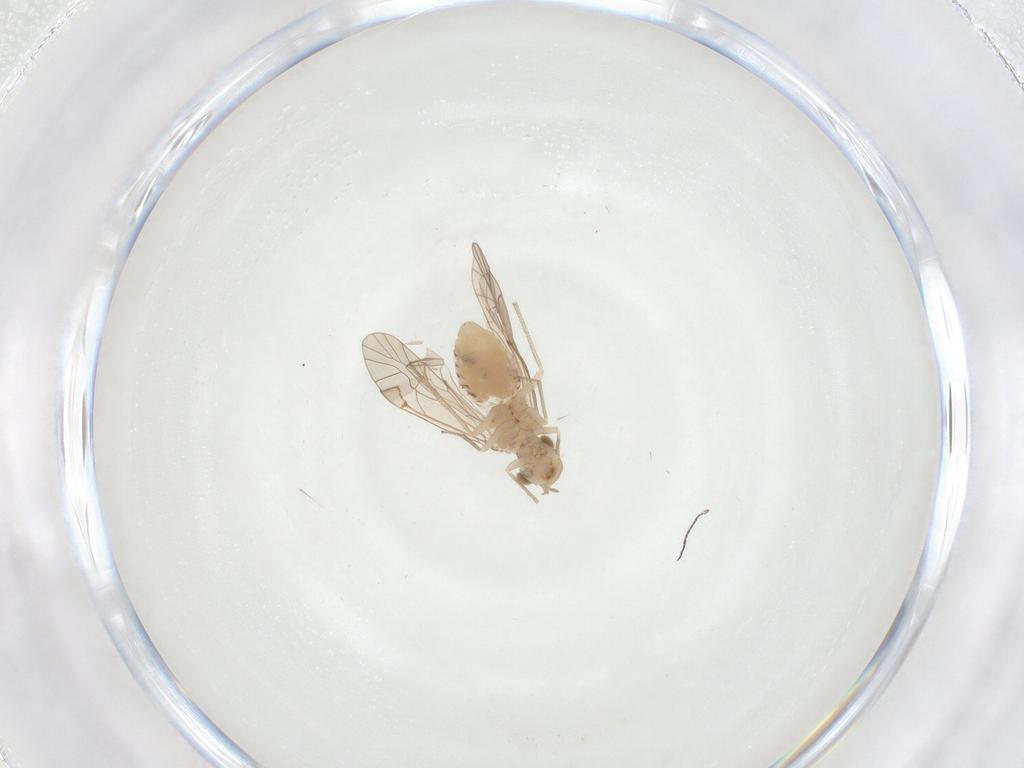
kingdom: Animalia
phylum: Arthropoda
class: Insecta
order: Psocodea
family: Lachesillidae
